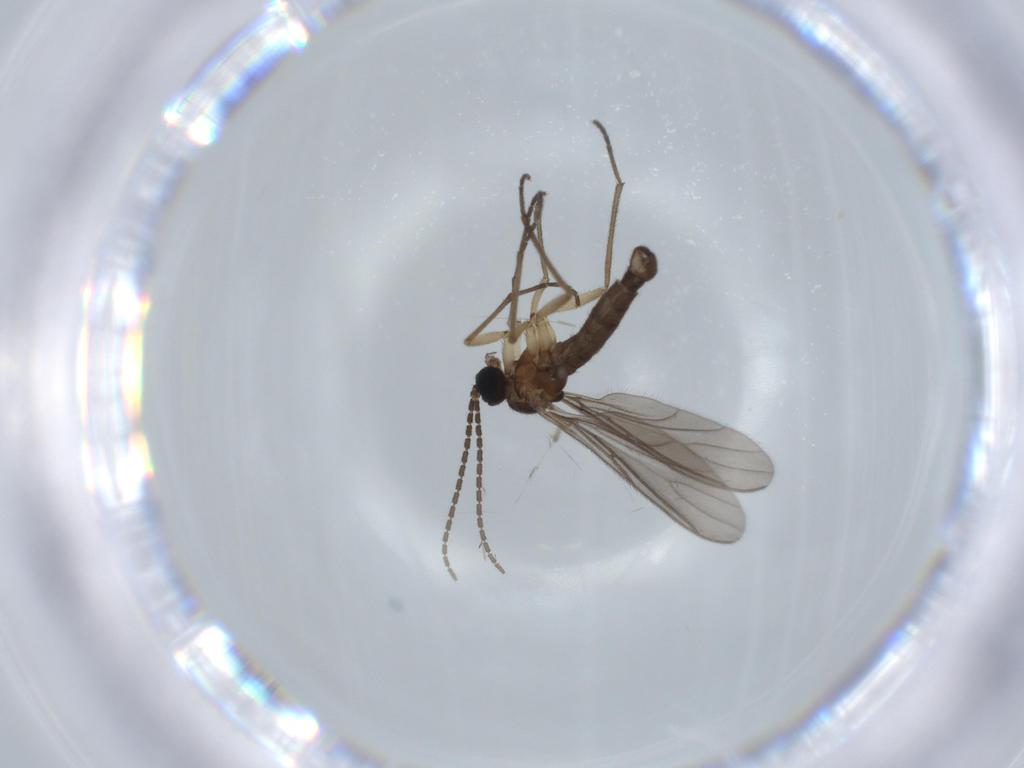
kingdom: Animalia
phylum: Arthropoda
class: Insecta
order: Diptera
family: Sciaridae
